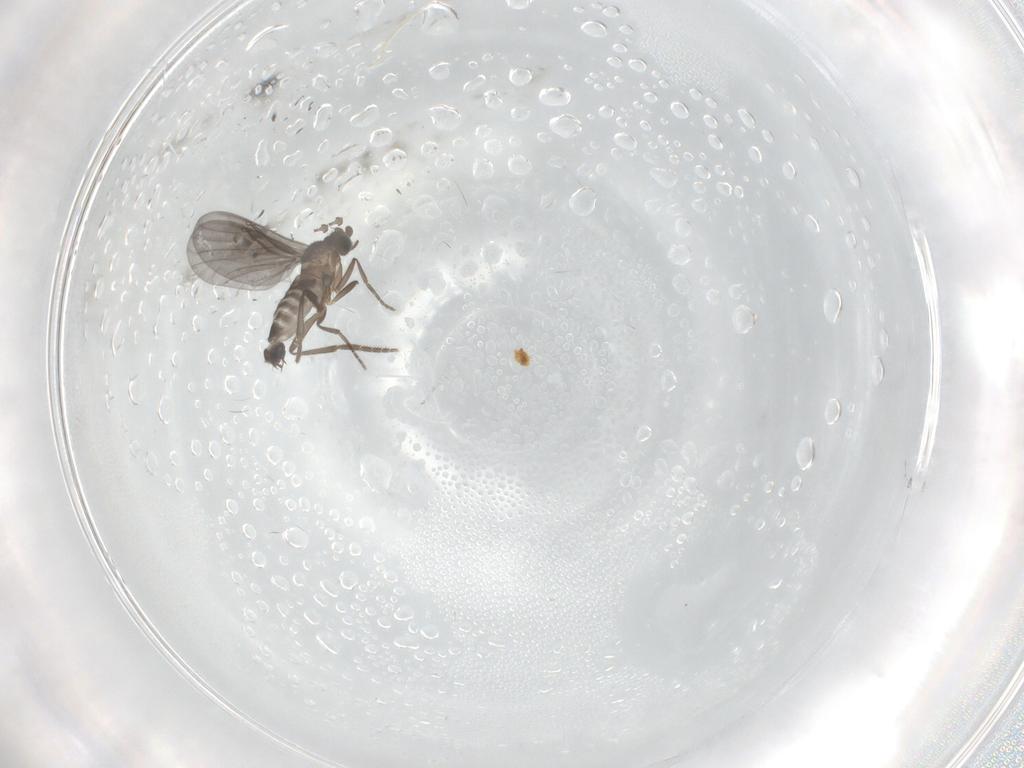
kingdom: Animalia
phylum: Arthropoda
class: Insecta
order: Diptera
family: Psychodidae
